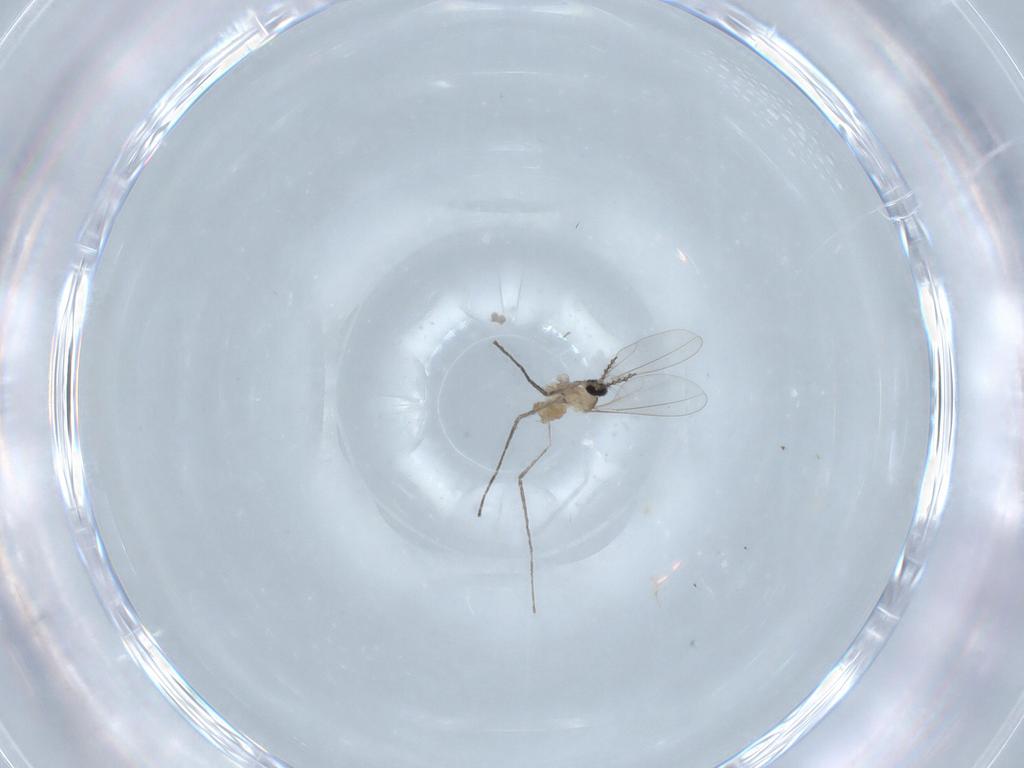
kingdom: Animalia
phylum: Arthropoda
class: Insecta
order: Diptera
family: Cecidomyiidae
